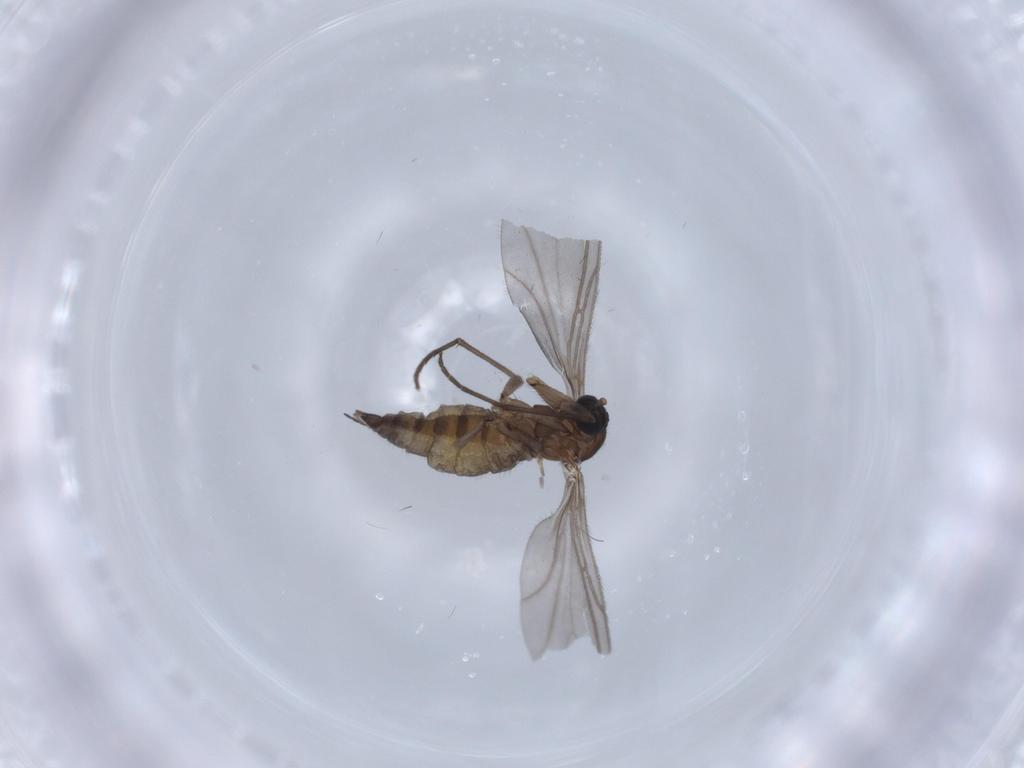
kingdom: Animalia
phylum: Arthropoda
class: Insecta
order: Diptera
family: Sciaridae
